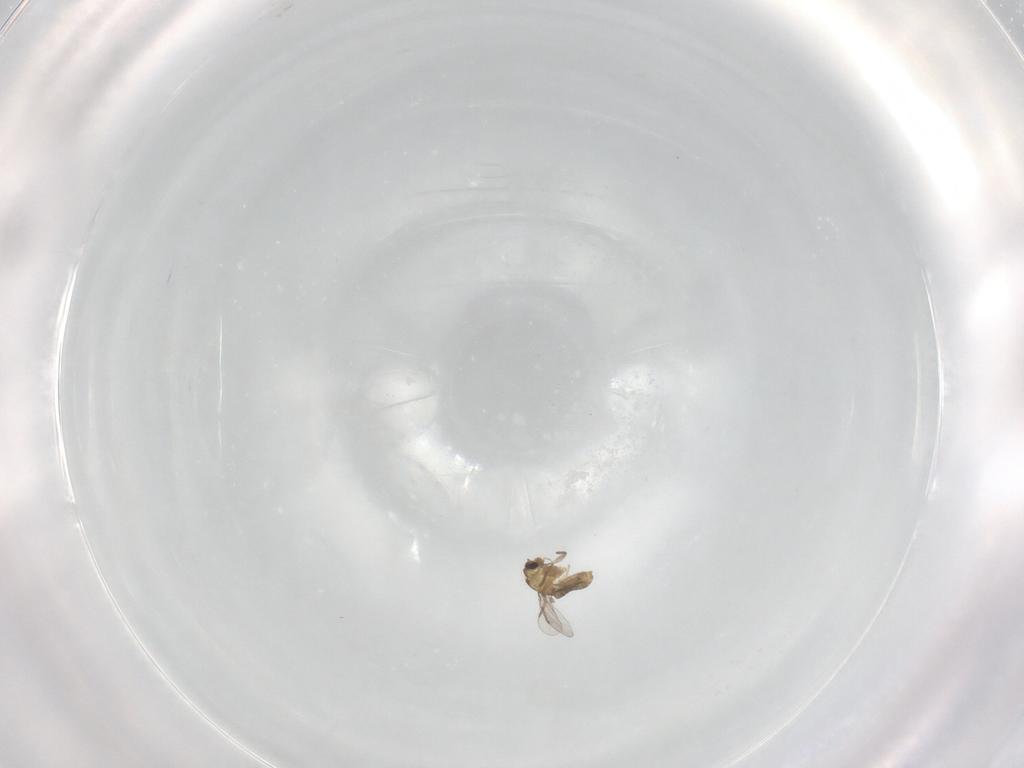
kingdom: Animalia
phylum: Arthropoda
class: Insecta
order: Diptera
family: Chironomidae
